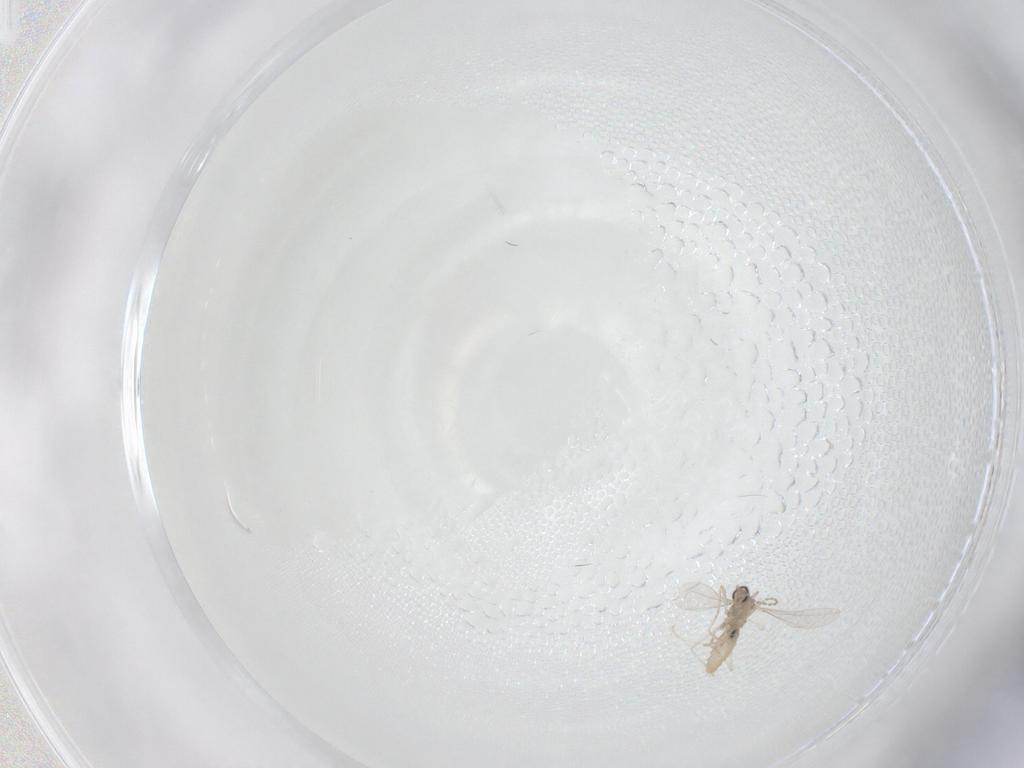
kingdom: Animalia
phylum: Arthropoda
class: Insecta
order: Diptera
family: Cecidomyiidae
